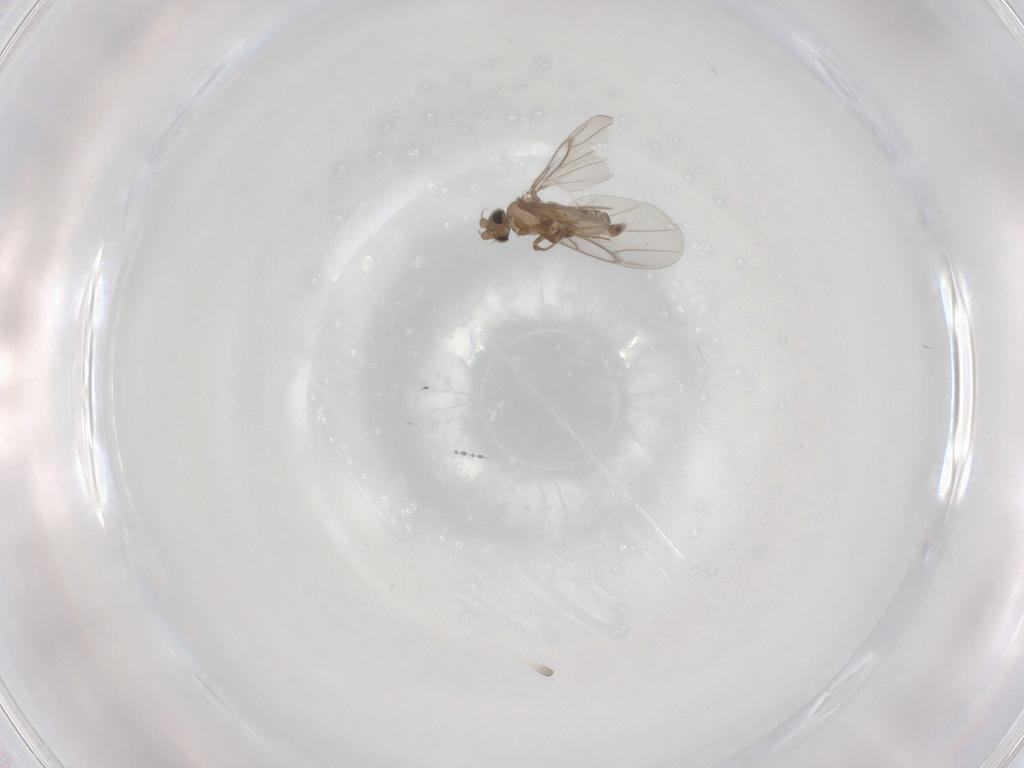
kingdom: Animalia
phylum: Arthropoda
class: Insecta
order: Diptera
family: Cecidomyiidae
